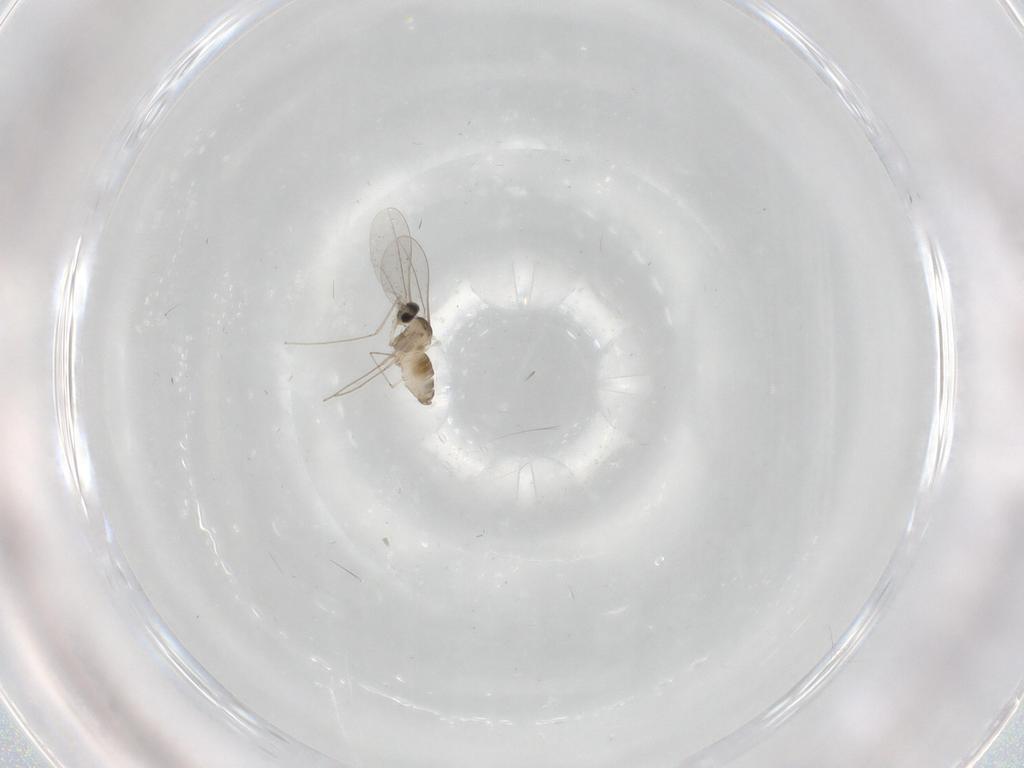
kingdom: Animalia
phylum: Arthropoda
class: Insecta
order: Diptera
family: Cecidomyiidae
